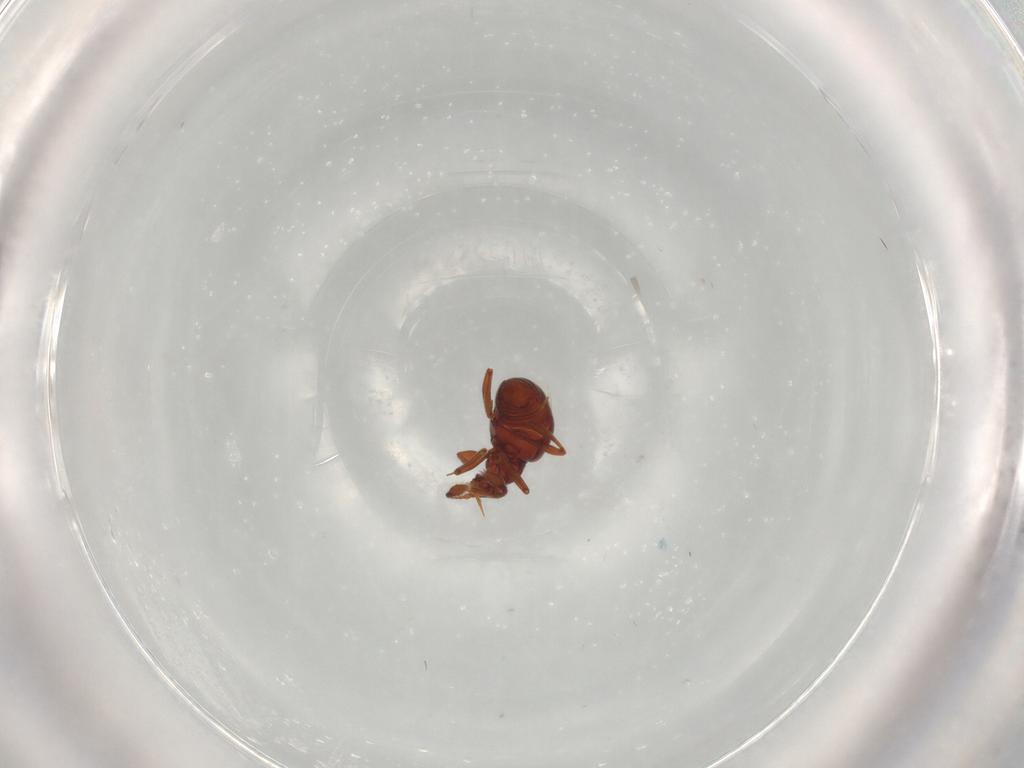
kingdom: Animalia
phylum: Arthropoda
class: Insecta
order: Coleoptera
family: Staphylinidae
